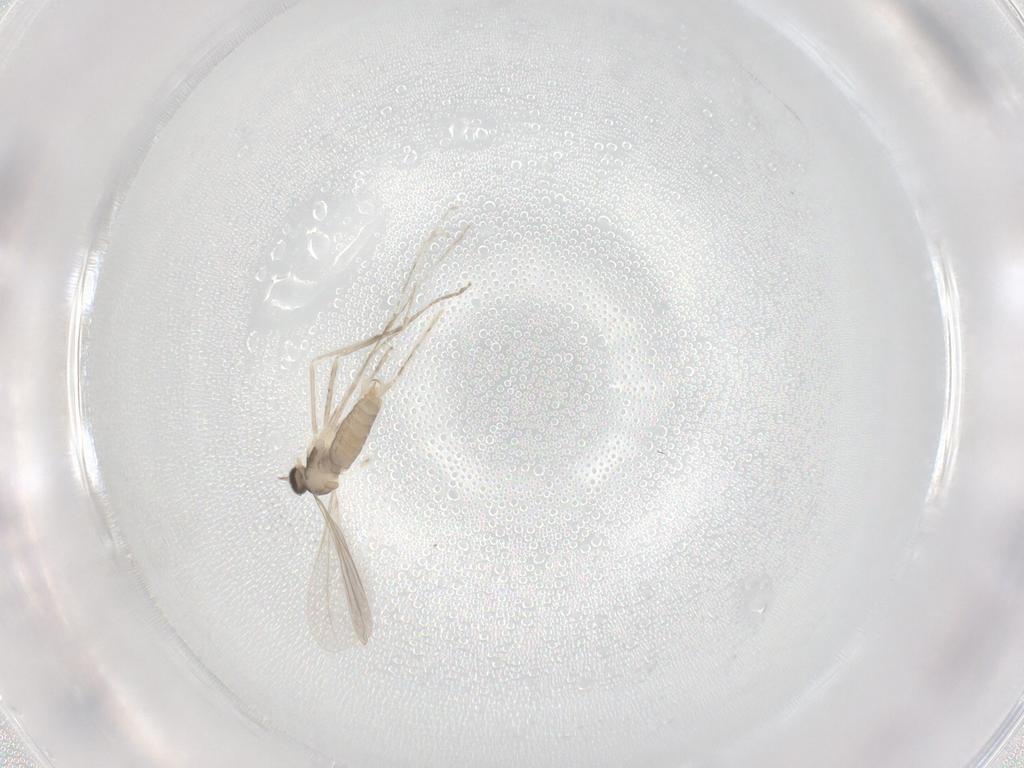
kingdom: Animalia
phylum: Arthropoda
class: Insecta
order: Diptera
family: Cecidomyiidae
